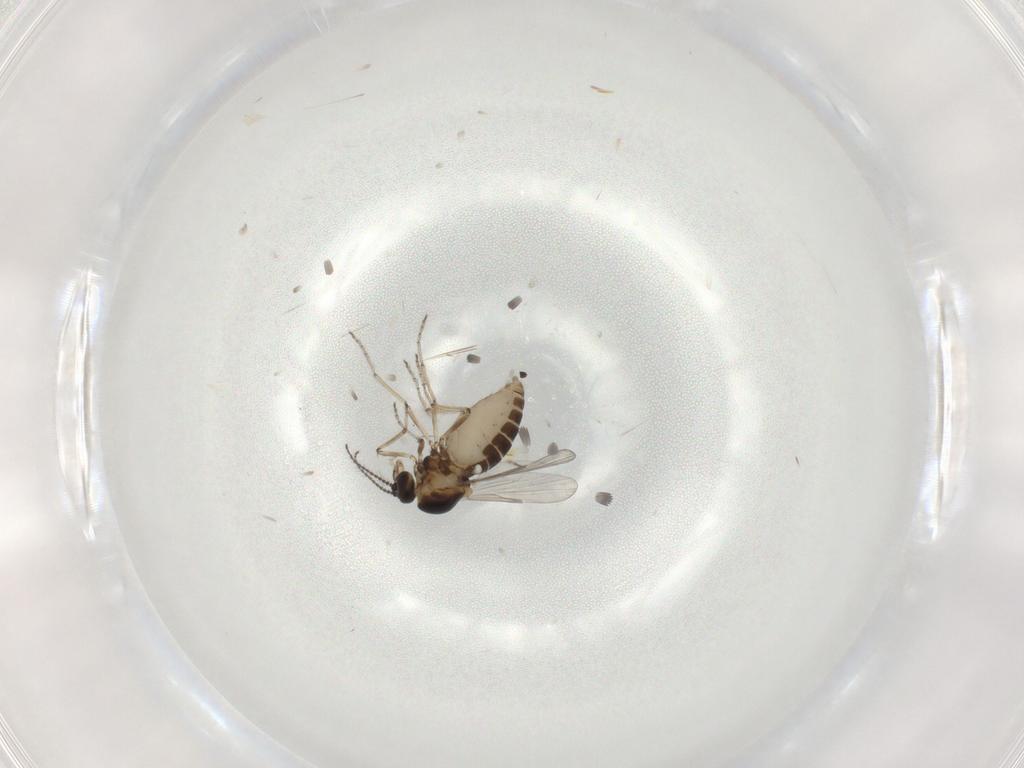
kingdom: Animalia
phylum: Arthropoda
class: Insecta
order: Diptera
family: Ceratopogonidae
